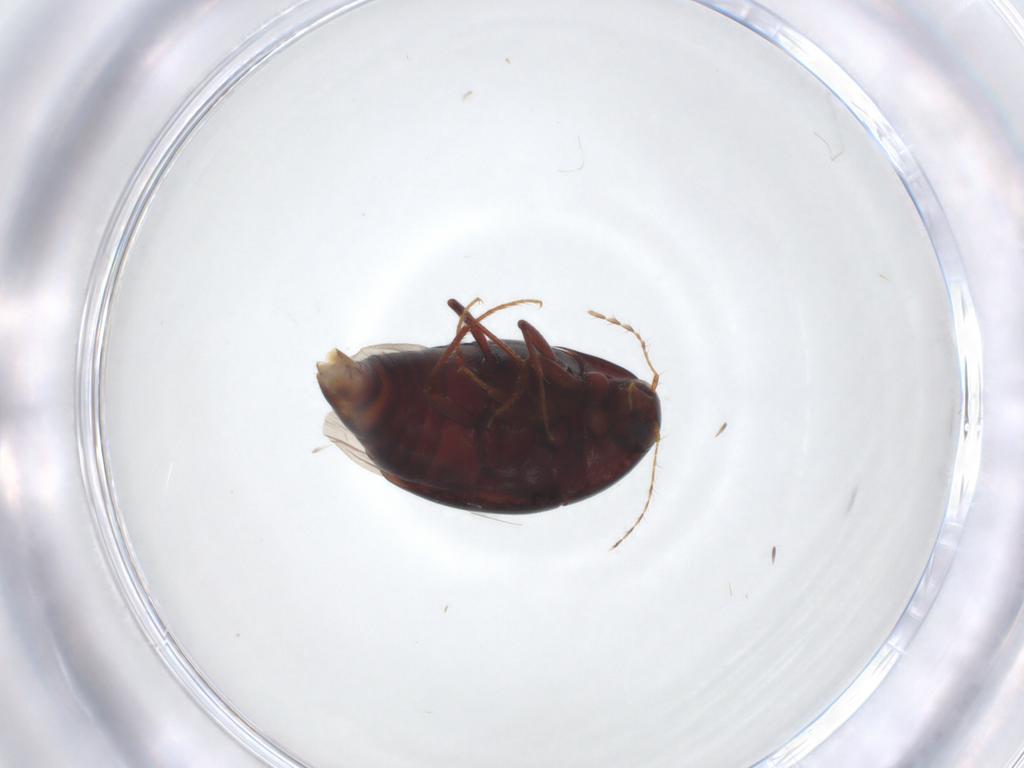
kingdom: Animalia
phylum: Arthropoda
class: Insecta
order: Coleoptera
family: Staphylinidae
